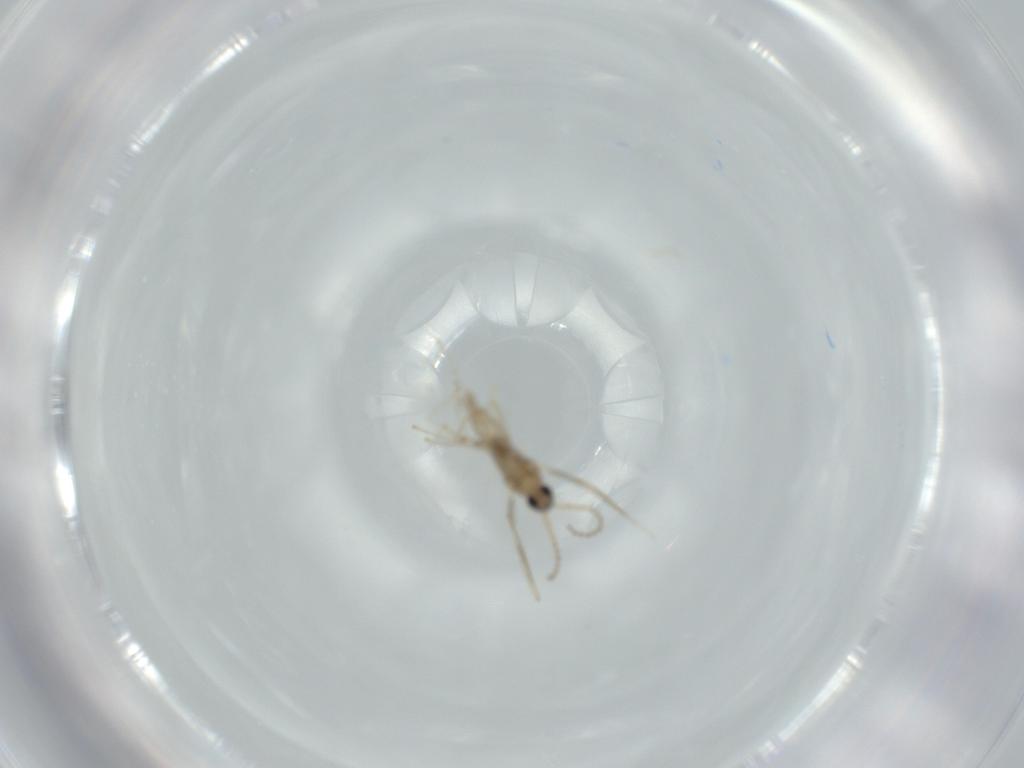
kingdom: Animalia
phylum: Arthropoda
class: Insecta
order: Diptera
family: Cecidomyiidae
